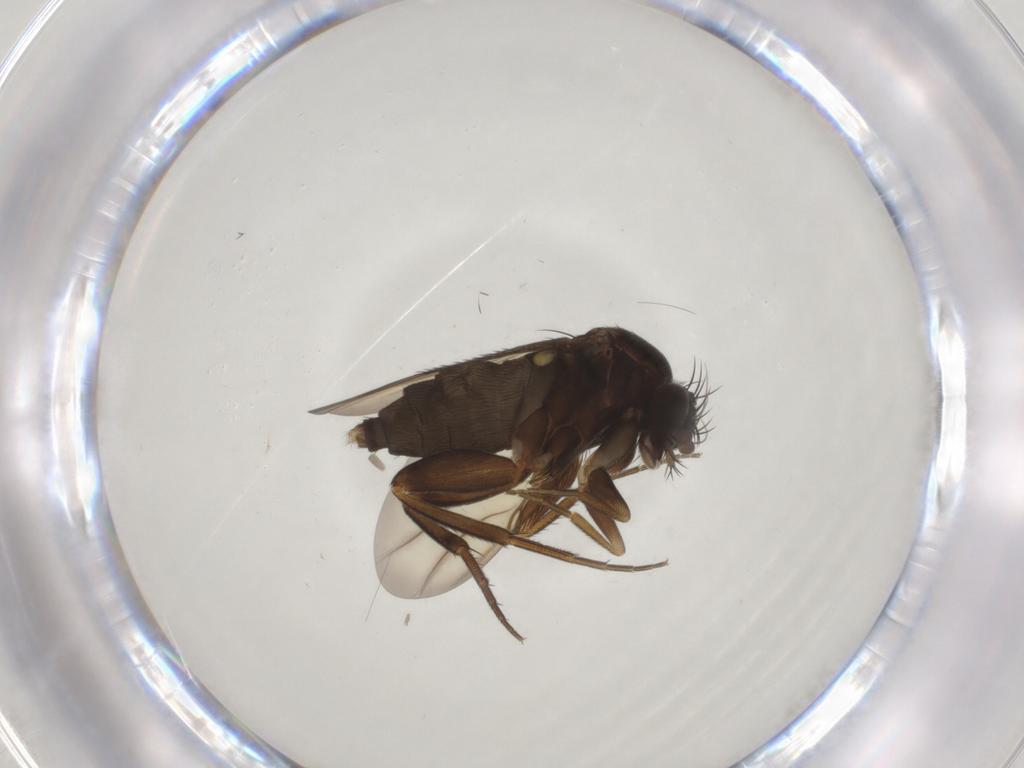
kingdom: Animalia
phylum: Arthropoda
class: Insecta
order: Diptera
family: Phoridae
